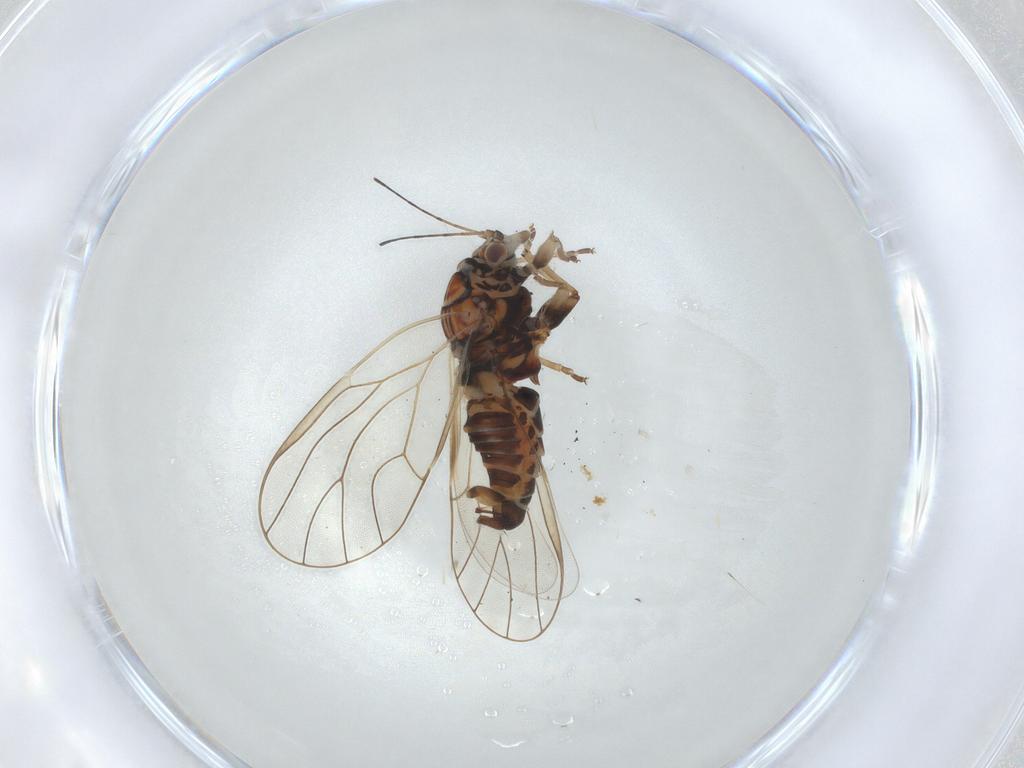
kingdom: Animalia
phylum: Arthropoda
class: Insecta
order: Hemiptera
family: Psyllidae
